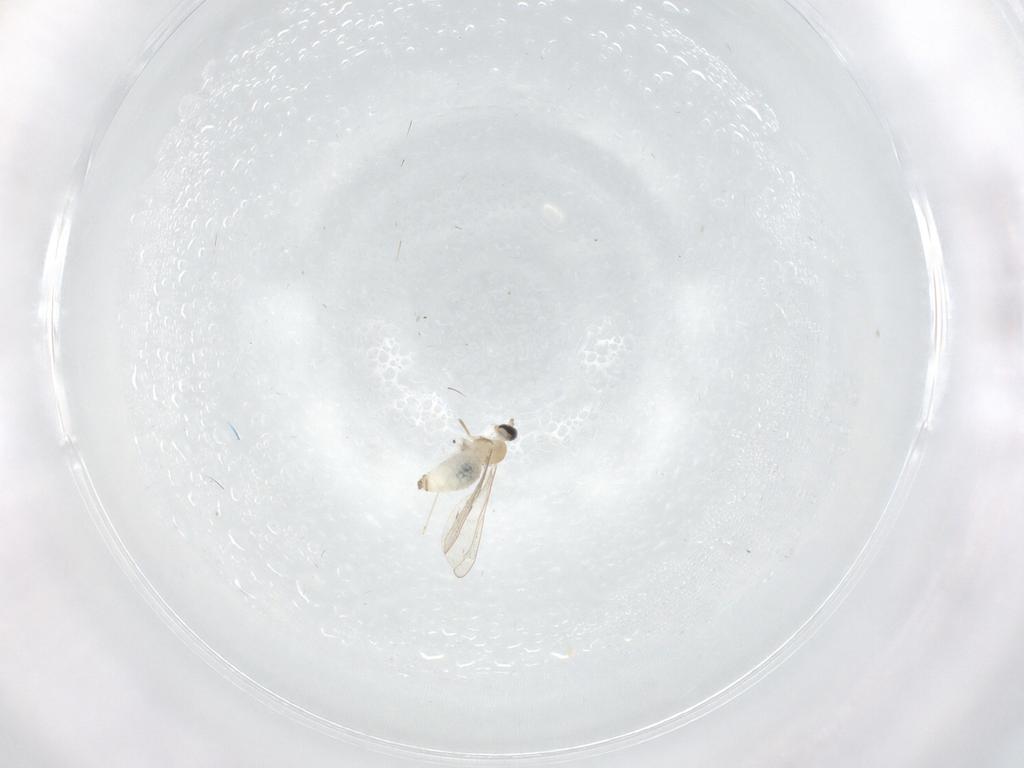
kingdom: Animalia
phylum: Arthropoda
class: Insecta
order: Diptera
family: Cecidomyiidae
